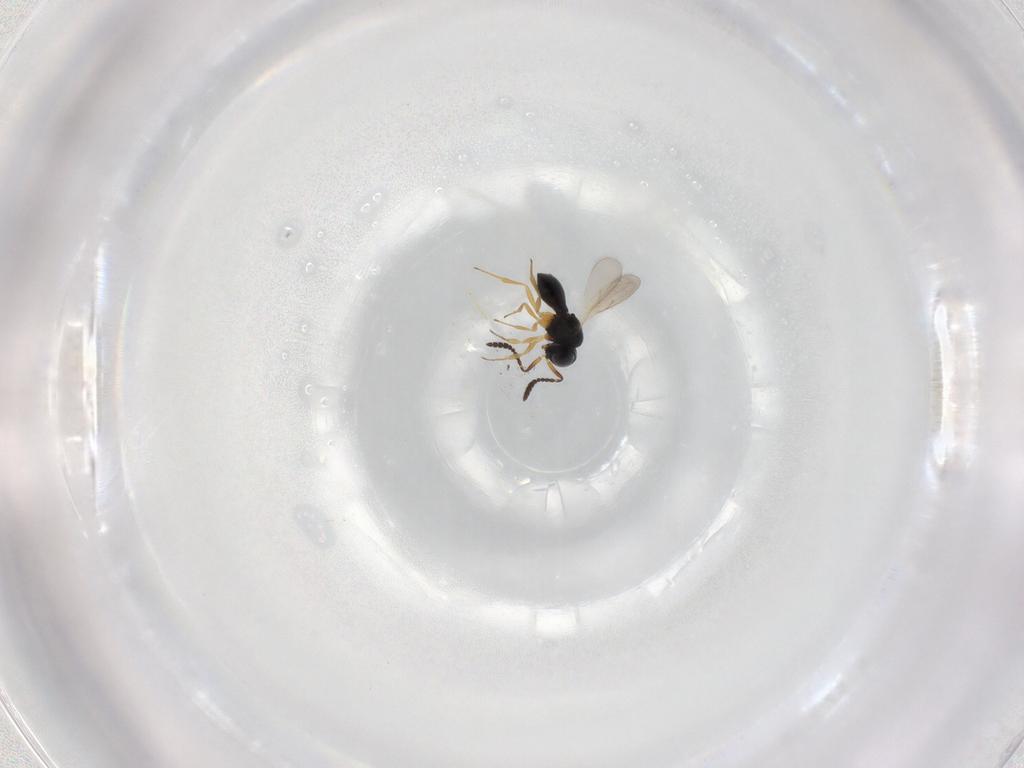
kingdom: Animalia
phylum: Arthropoda
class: Insecta
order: Hymenoptera
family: Scelionidae
